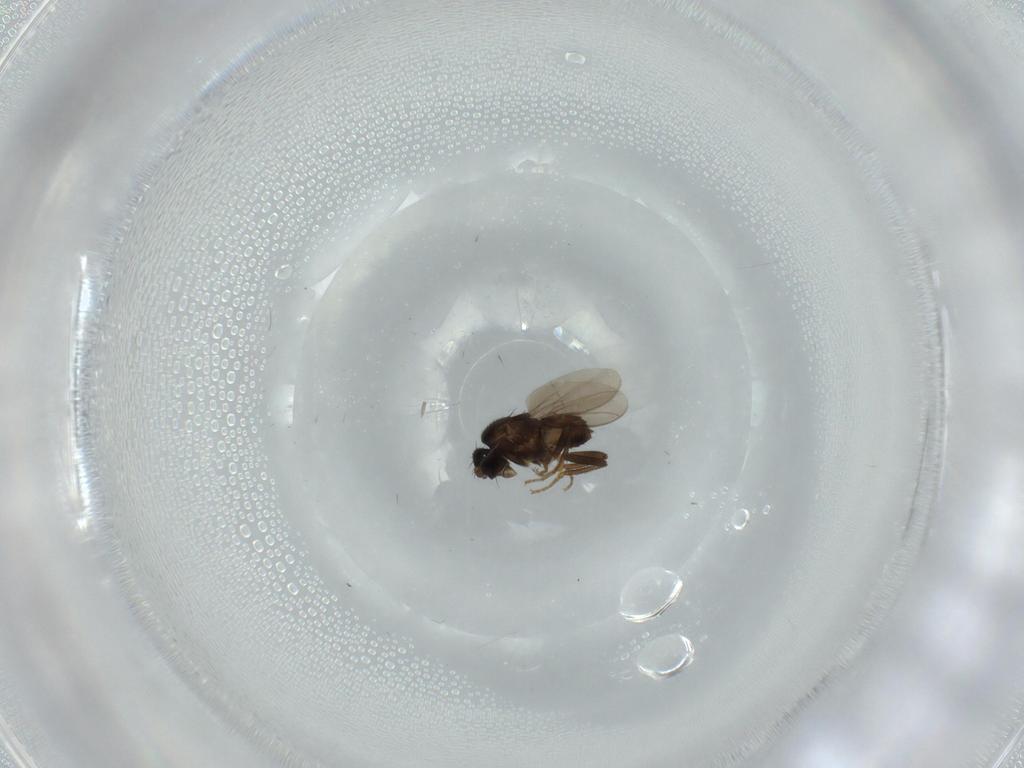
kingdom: Animalia
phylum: Arthropoda
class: Insecta
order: Diptera
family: Sphaeroceridae
